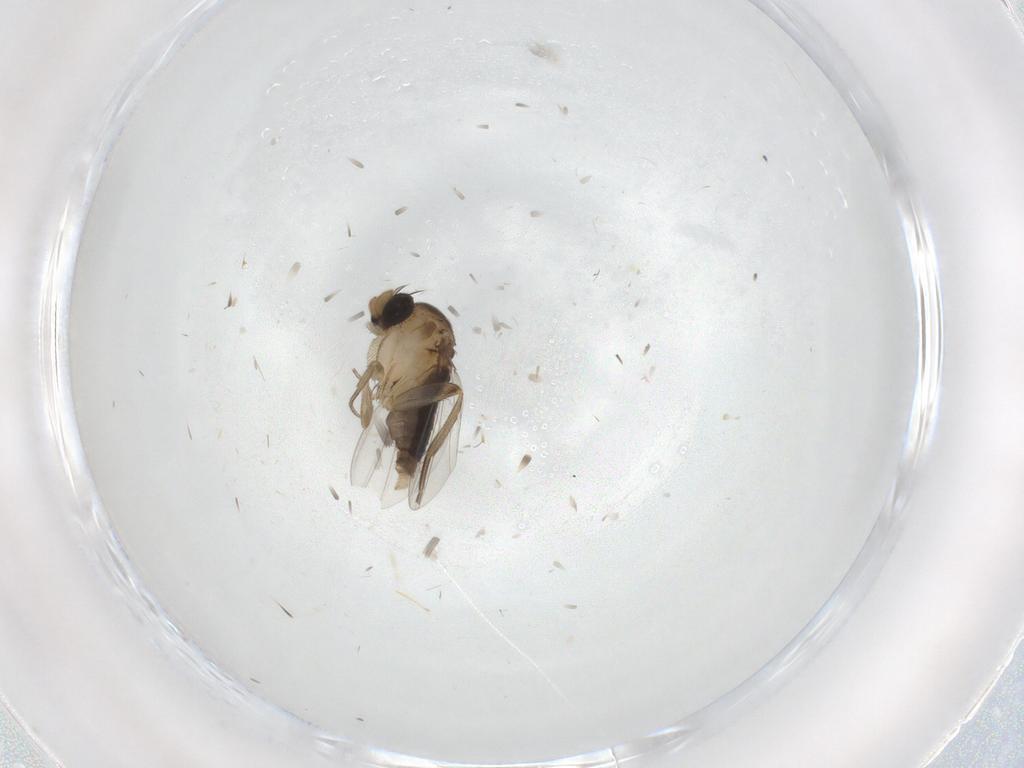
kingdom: Animalia
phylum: Arthropoda
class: Insecta
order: Diptera
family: Phoridae
